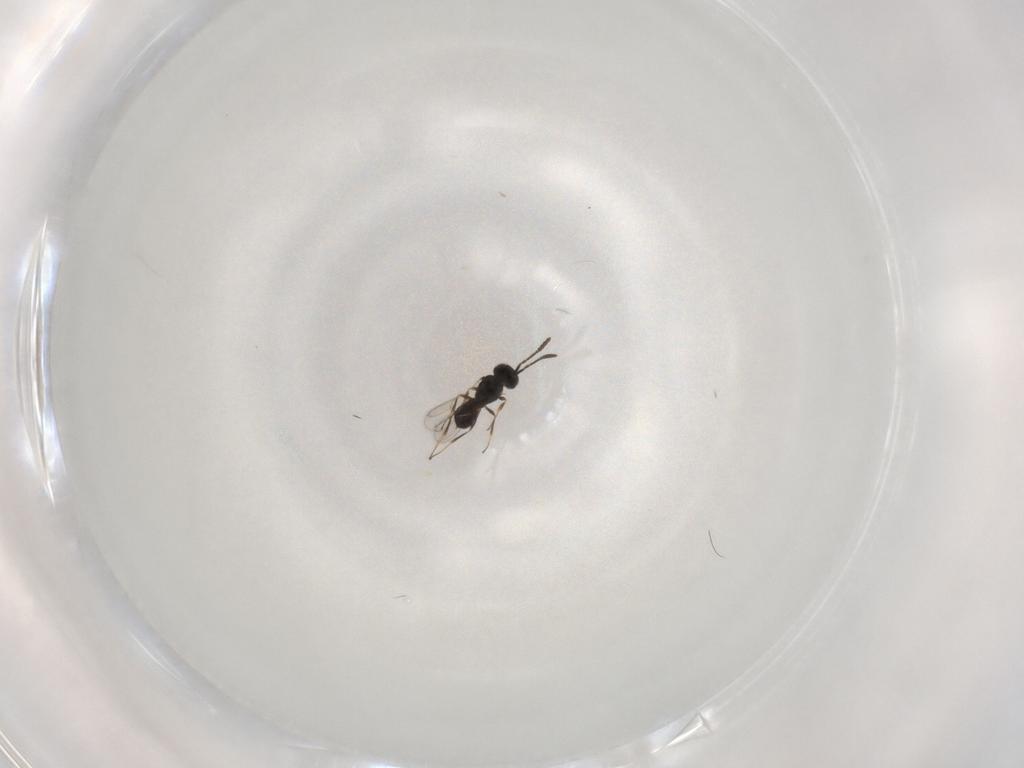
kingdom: Animalia
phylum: Arthropoda
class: Insecta
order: Hymenoptera
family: Scelionidae
